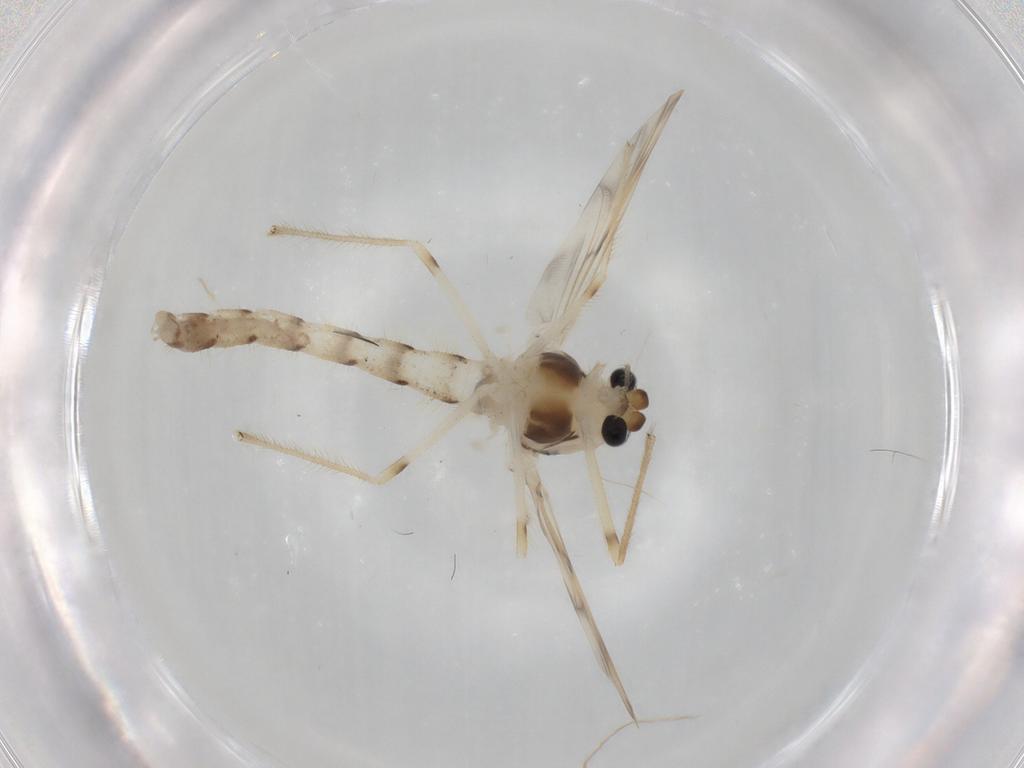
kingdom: Animalia
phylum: Arthropoda
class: Insecta
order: Diptera
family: Chironomidae
